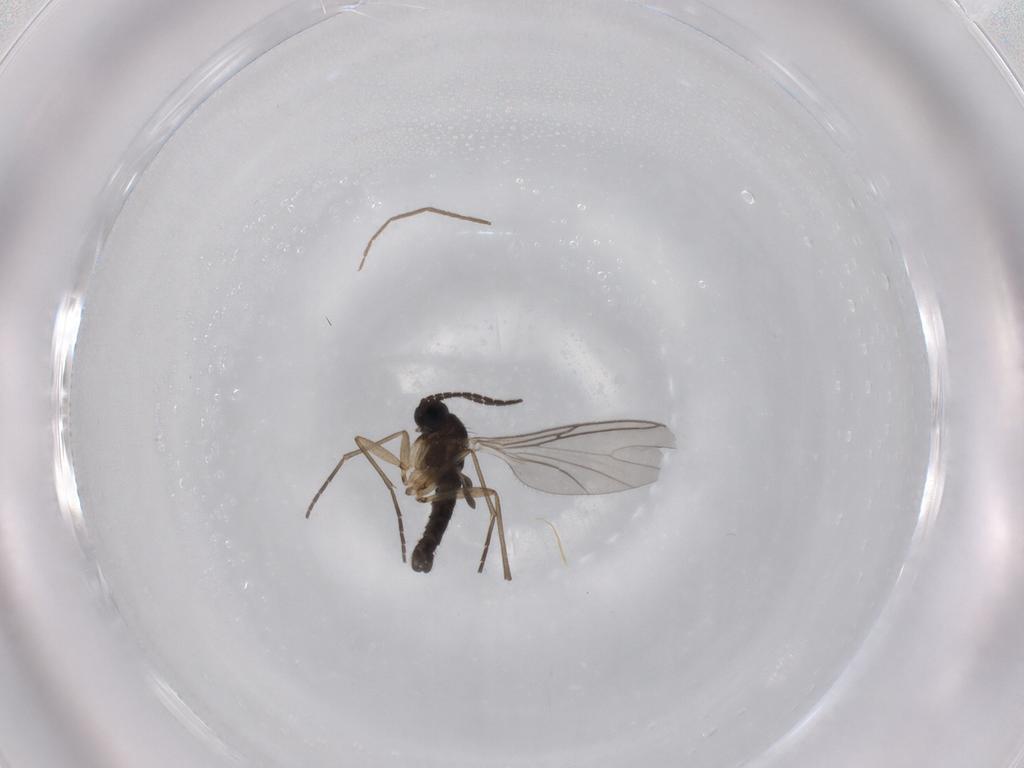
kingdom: Animalia
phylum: Arthropoda
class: Insecta
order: Diptera
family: Sciaridae
